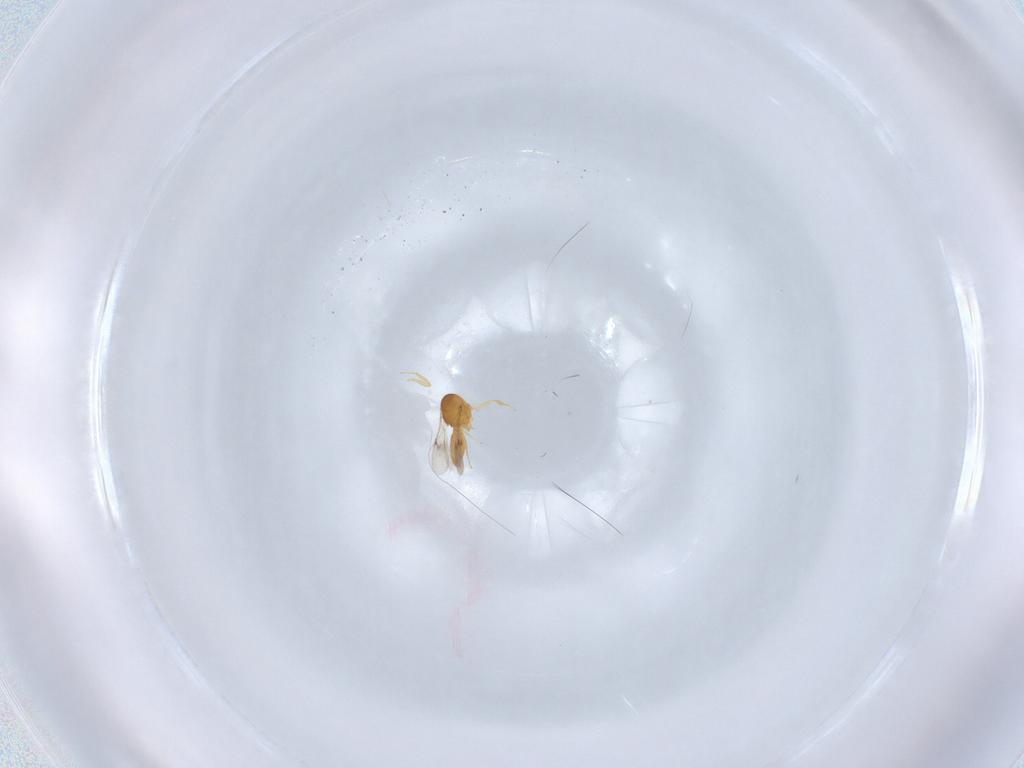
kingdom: Animalia
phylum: Arthropoda
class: Insecta
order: Hymenoptera
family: Scelionidae
